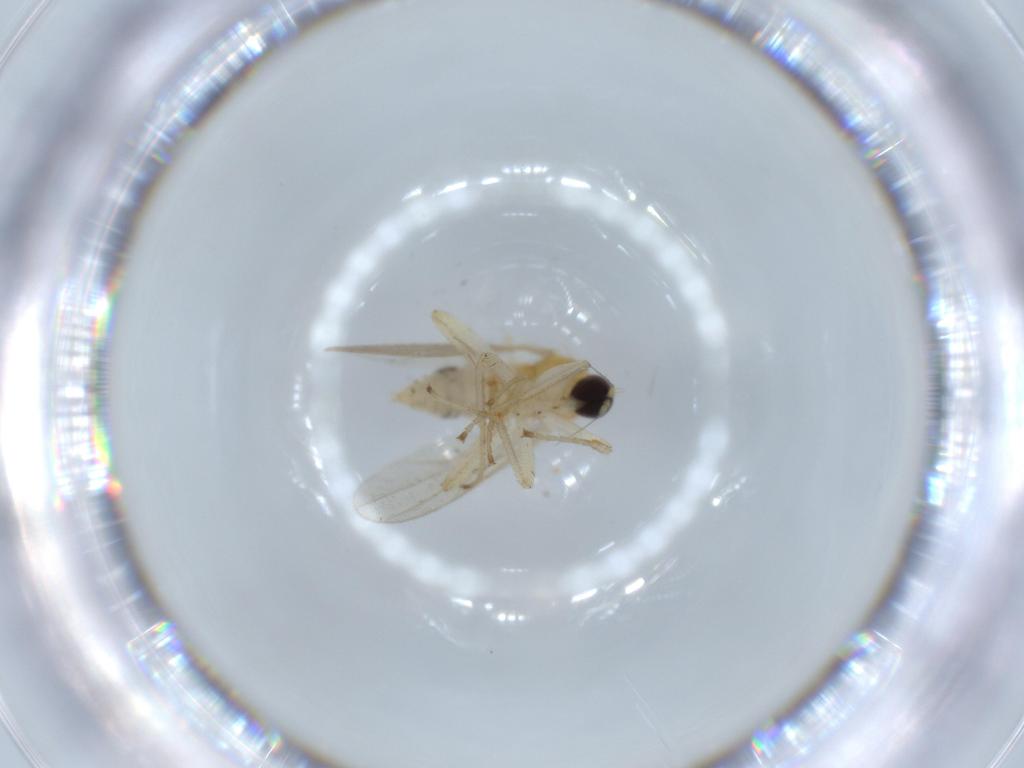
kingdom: Animalia
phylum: Arthropoda
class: Insecta
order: Diptera
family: Hybotidae
